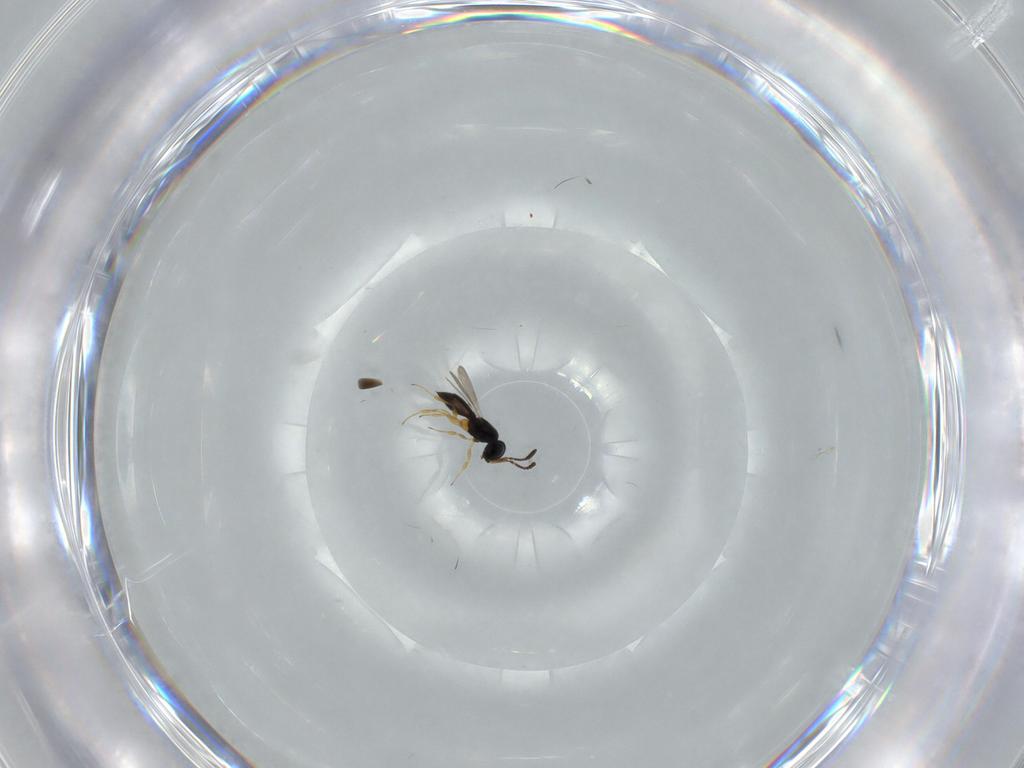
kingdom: Animalia
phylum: Arthropoda
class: Insecta
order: Hymenoptera
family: Scelionidae
